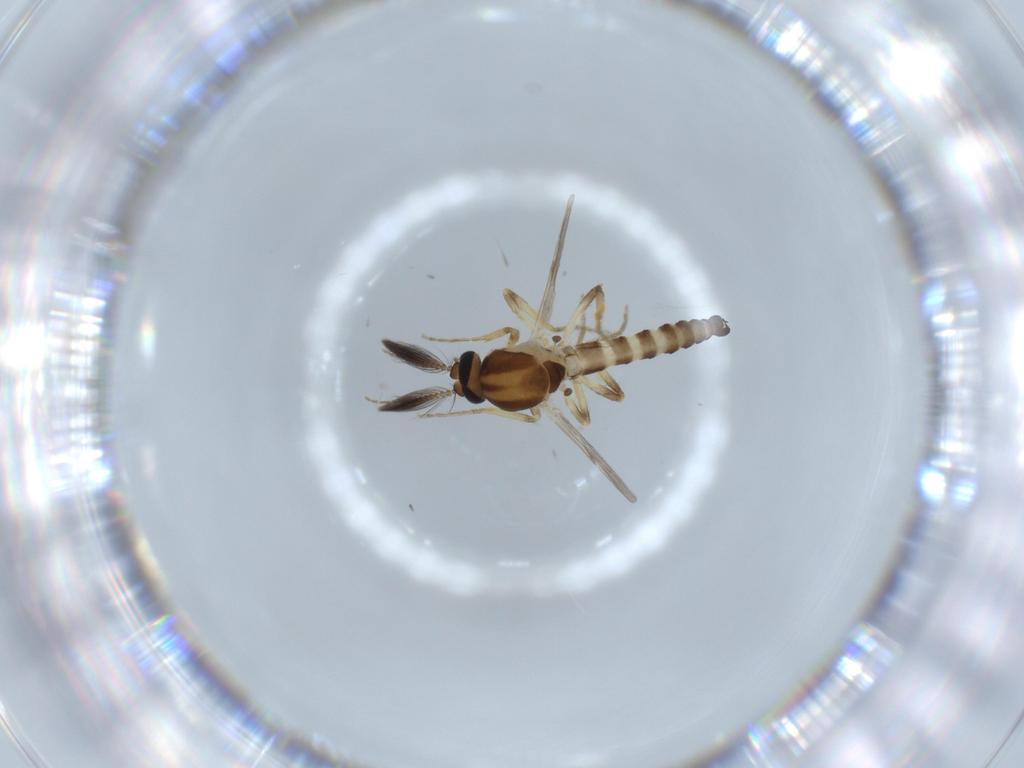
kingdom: Animalia
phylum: Arthropoda
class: Insecta
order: Diptera
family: Ceratopogonidae
